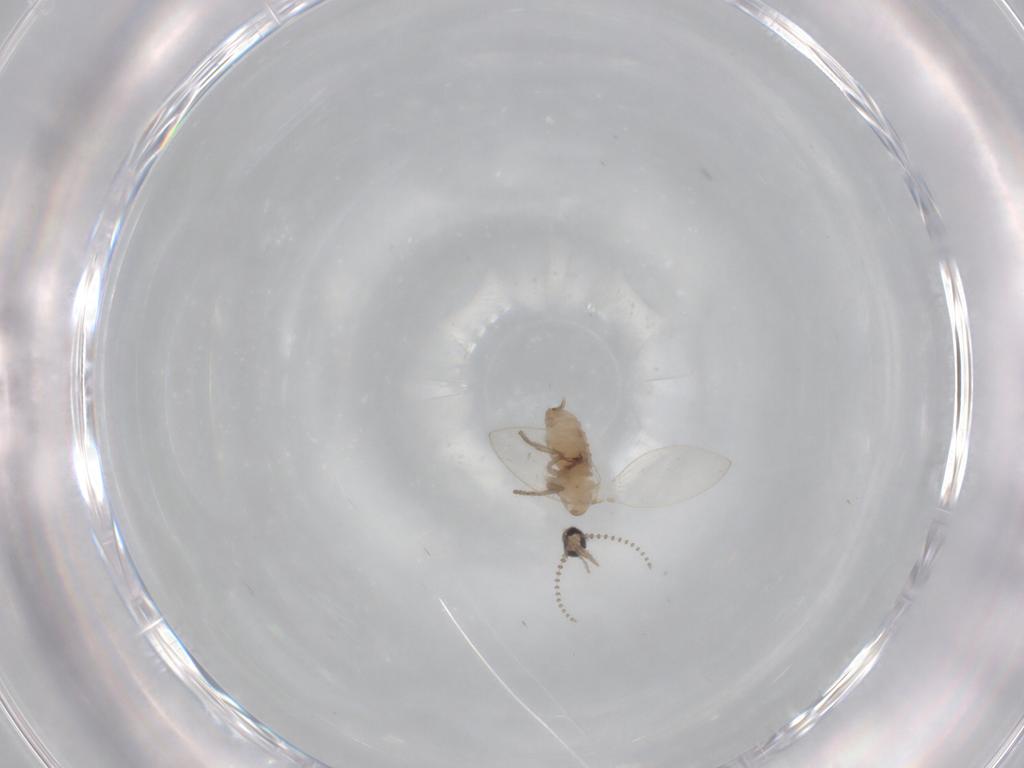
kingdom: Animalia
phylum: Arthropoda
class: Insecta
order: Diptera
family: Psychodidae
